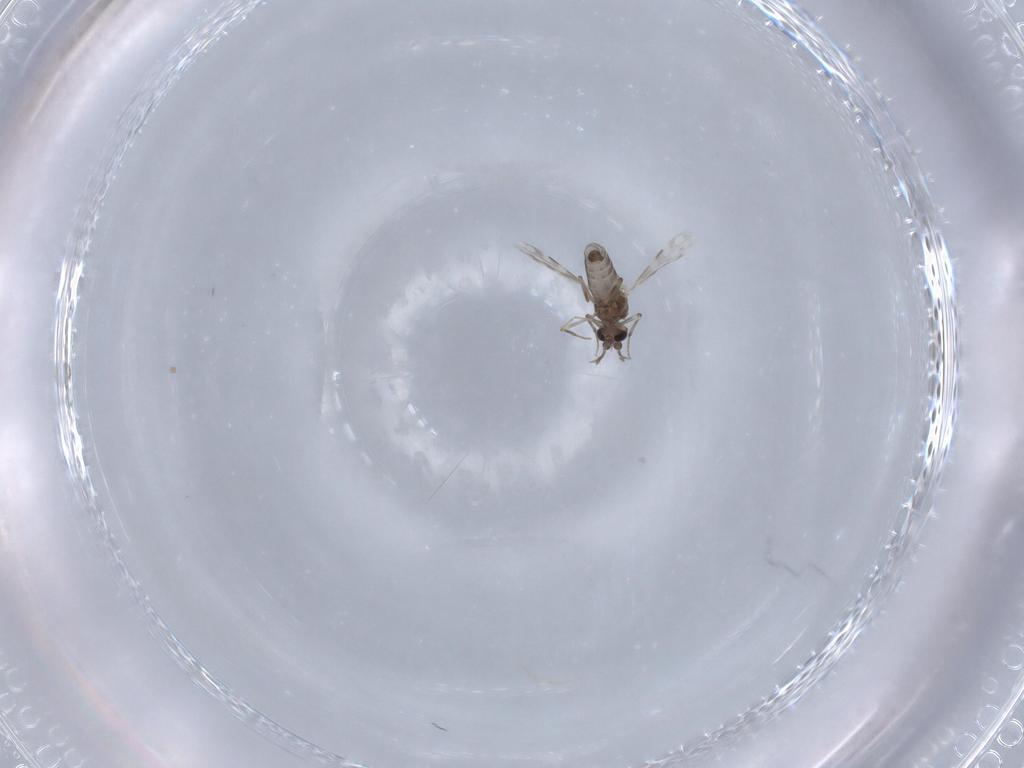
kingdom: Animalia
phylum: Arthropoda
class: Insecta
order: Diptera
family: Ceratopogonidae
